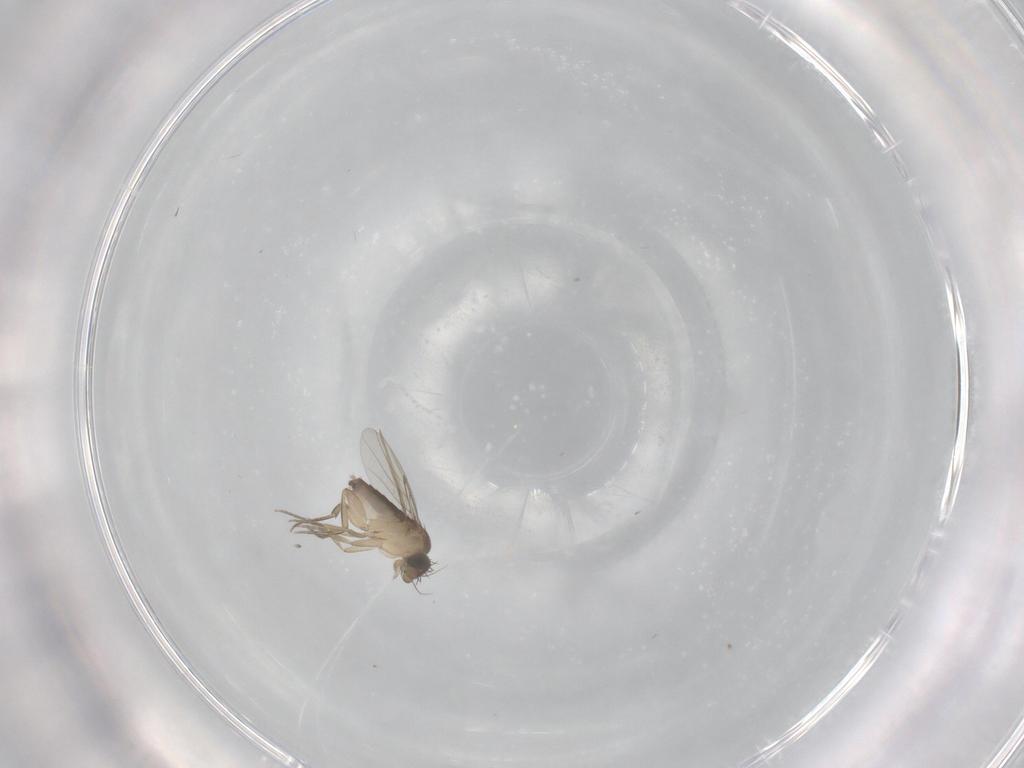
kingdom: Animalia
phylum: Arthropoda
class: Insecta
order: Diptera
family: Phoridae
